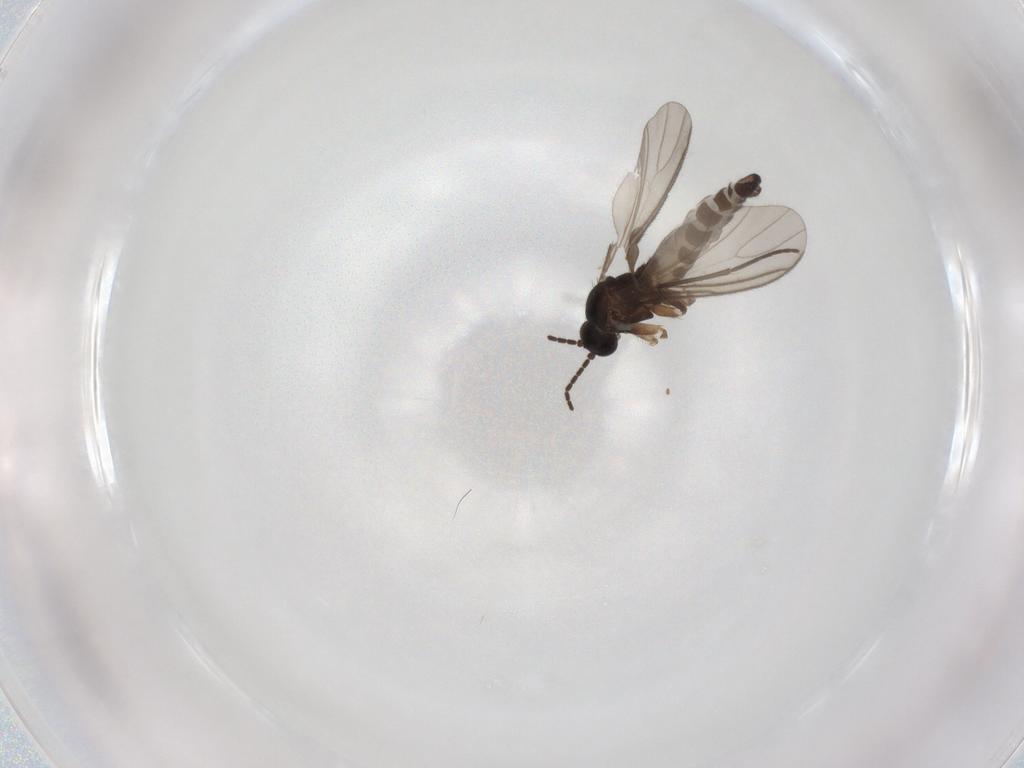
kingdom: Animalia
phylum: Arthropoda
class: Insecta
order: Diptera
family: Sciaridae
